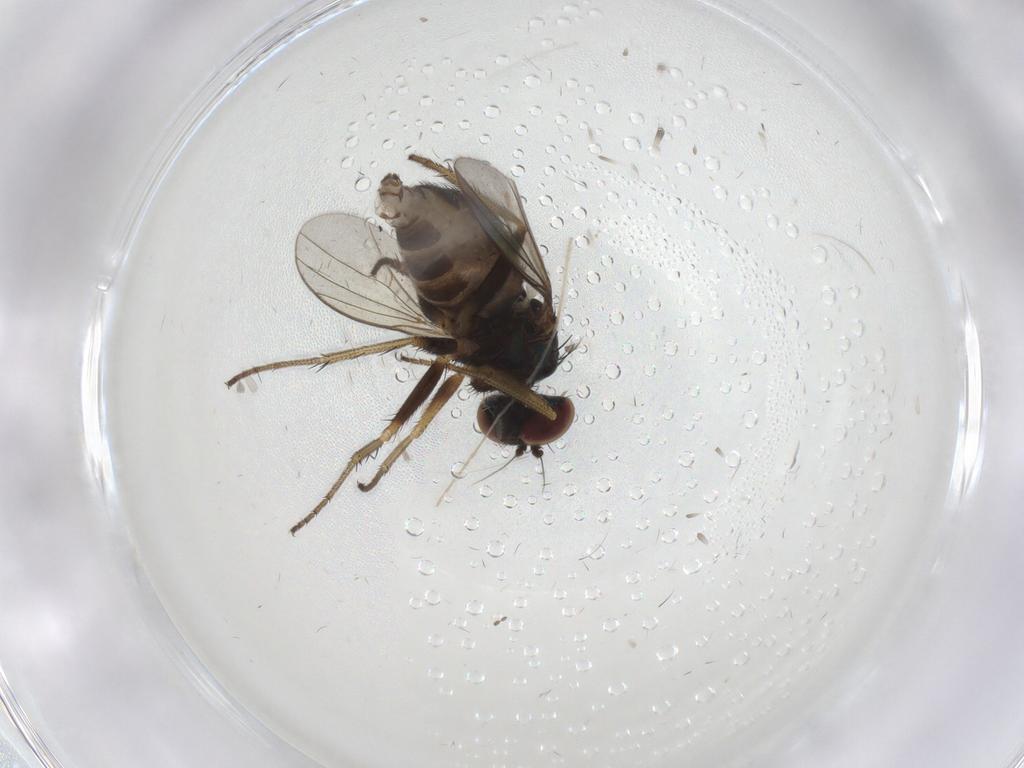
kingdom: Animalia
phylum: Arthropoda
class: Insecta
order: Diptera
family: Dolichopodidae
